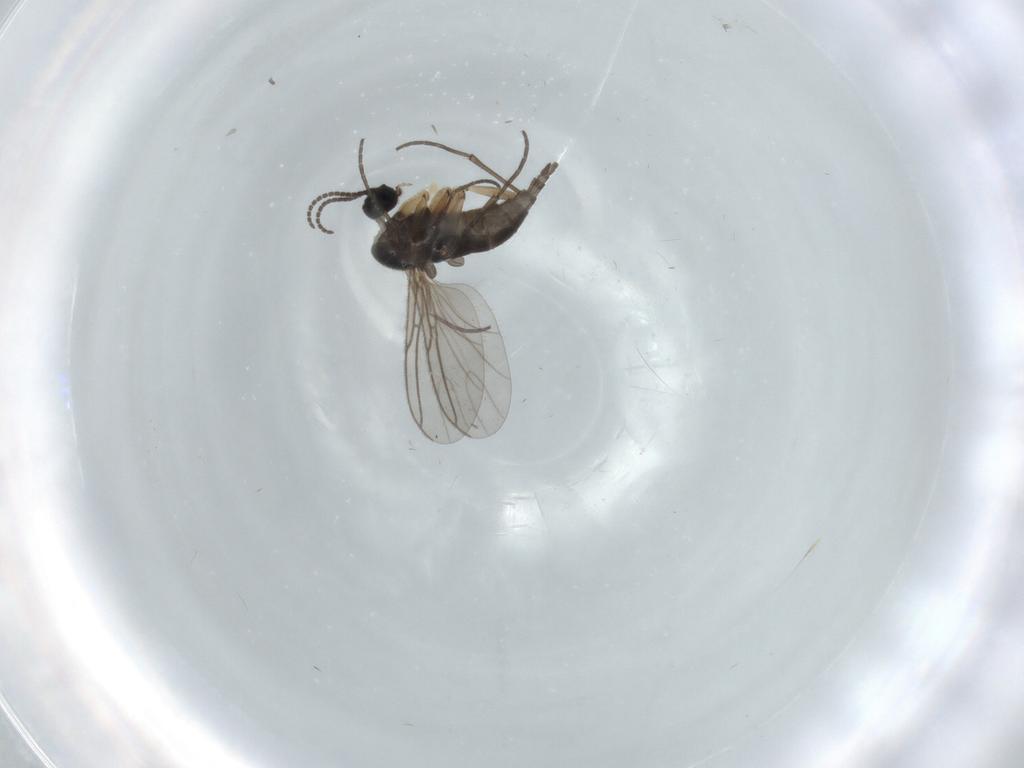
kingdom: Animalia
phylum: Arthropoda
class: Insecta
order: Diptera
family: Sciaridae
